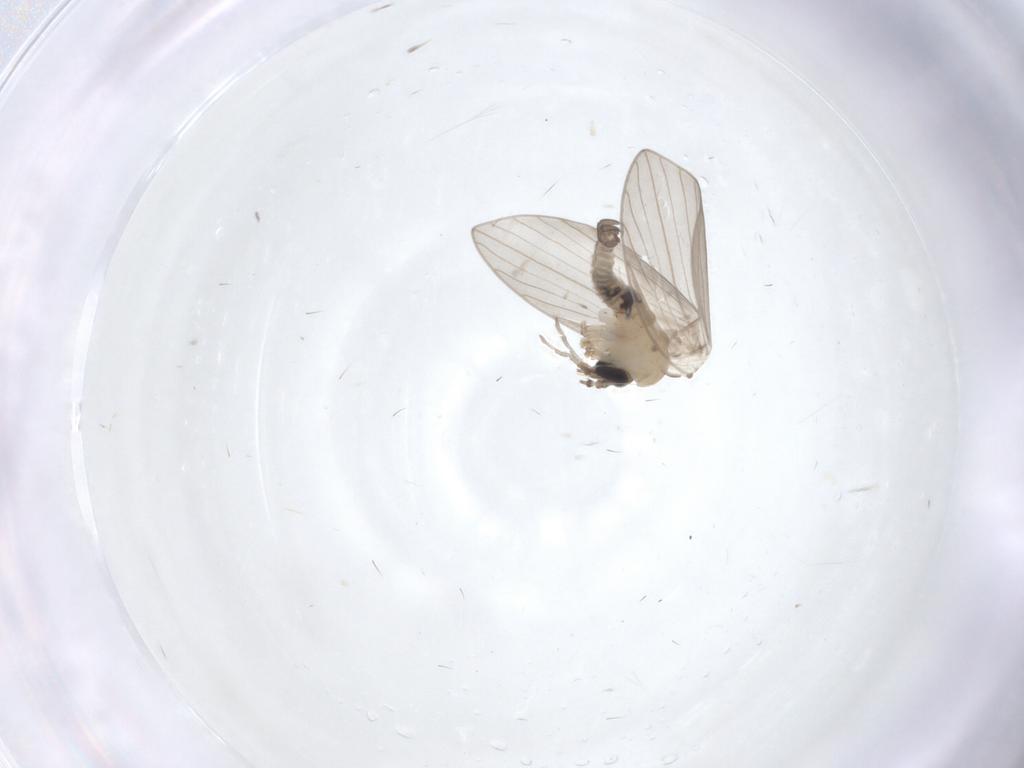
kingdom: Animalia
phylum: Arthropoda
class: Insecta
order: Diptera
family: Psychodidae
